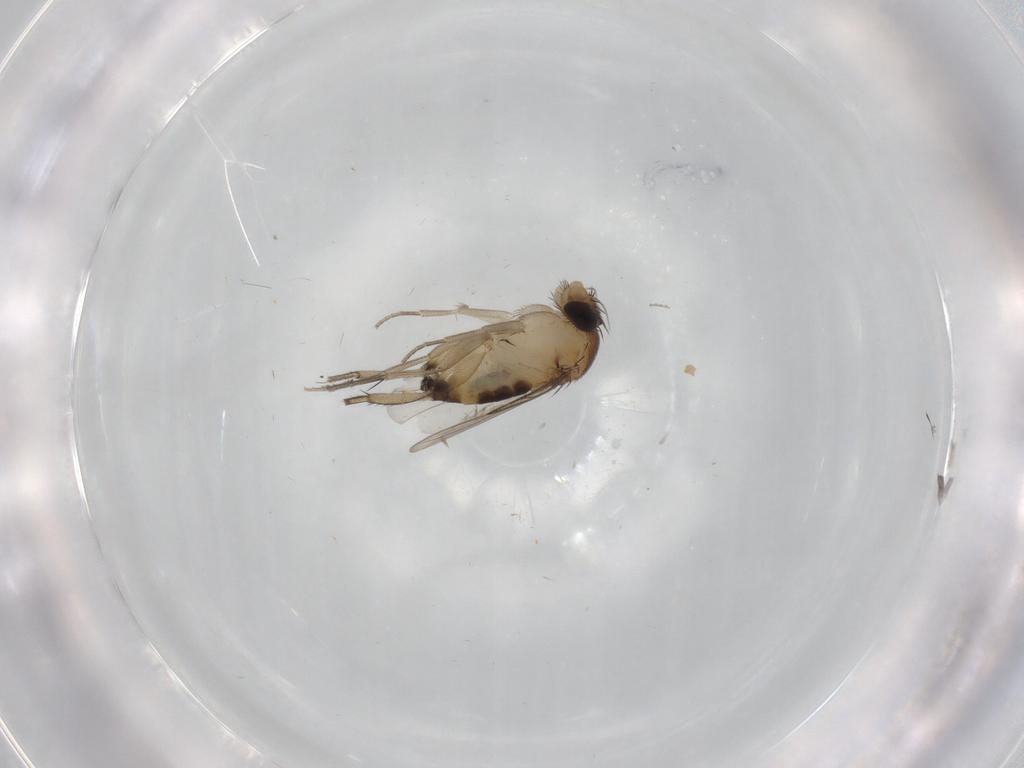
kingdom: Animalia
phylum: Arthropoda
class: Insecta
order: Diptera
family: Phoridae
